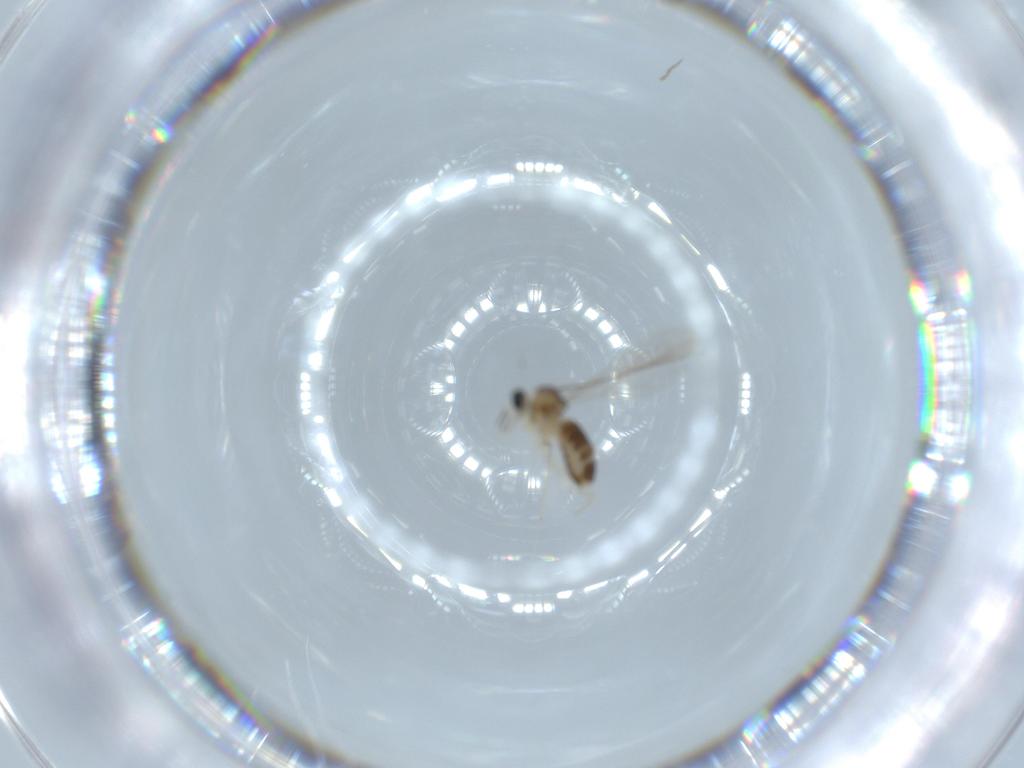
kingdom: Animalia
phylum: Arthropoda
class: Insecta
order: Diptera
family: Cecidomyiidae
